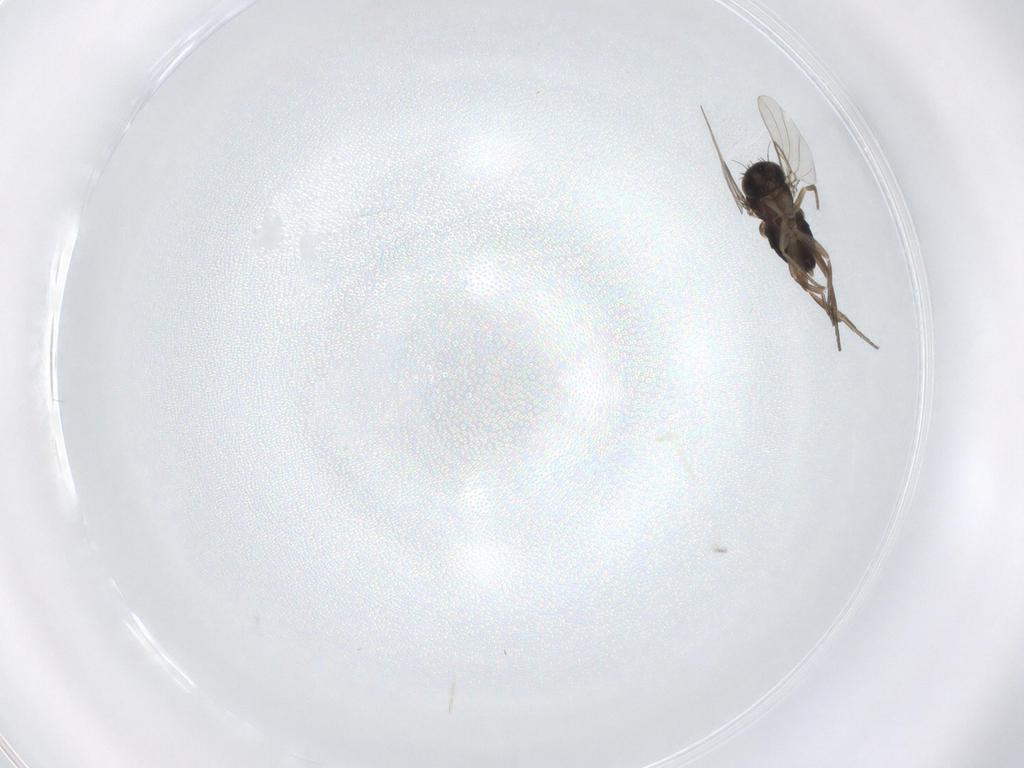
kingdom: Animalia
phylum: Arthropoda
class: Insecta
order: Diptera
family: Phoridae
